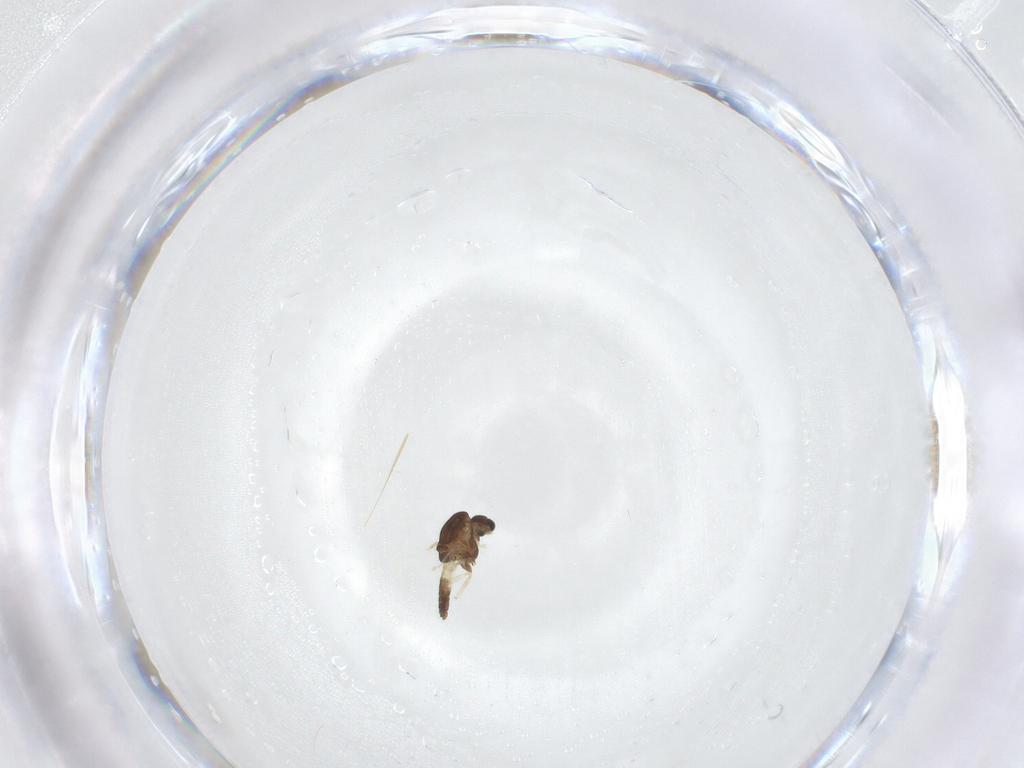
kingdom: Animalia
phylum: Arthropoda
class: Insecta
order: Diptera
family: Chironomidae
